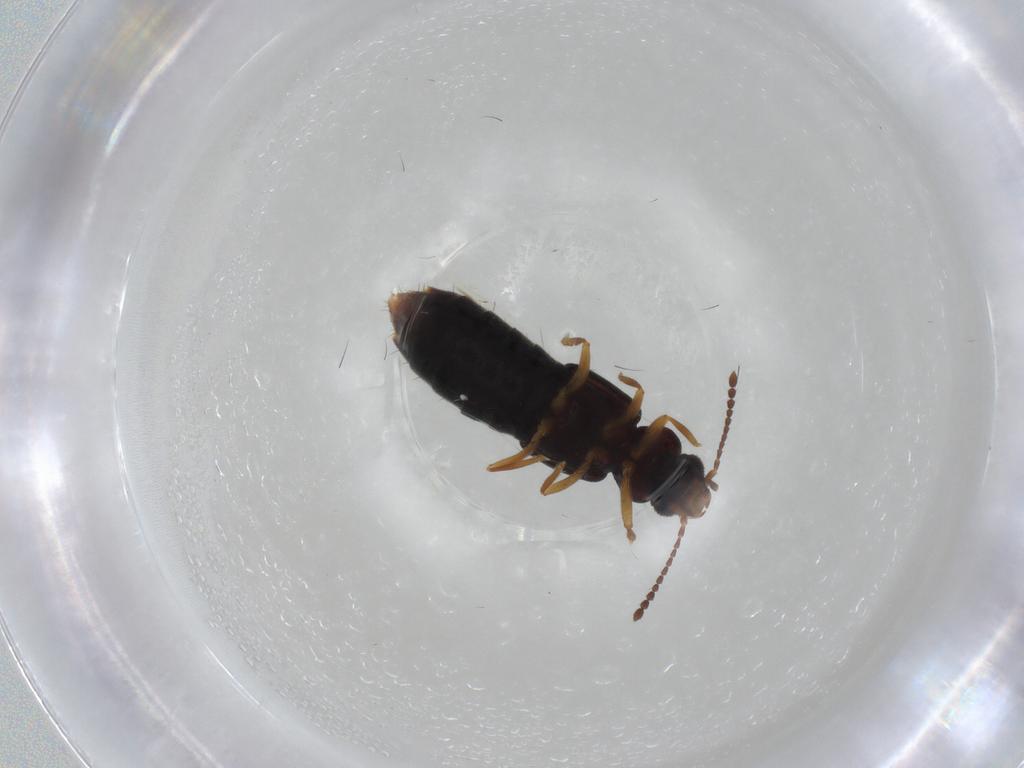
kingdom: Animalia
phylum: Arthropoda
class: Insecta
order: Coleoptera
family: Staphylinidae
